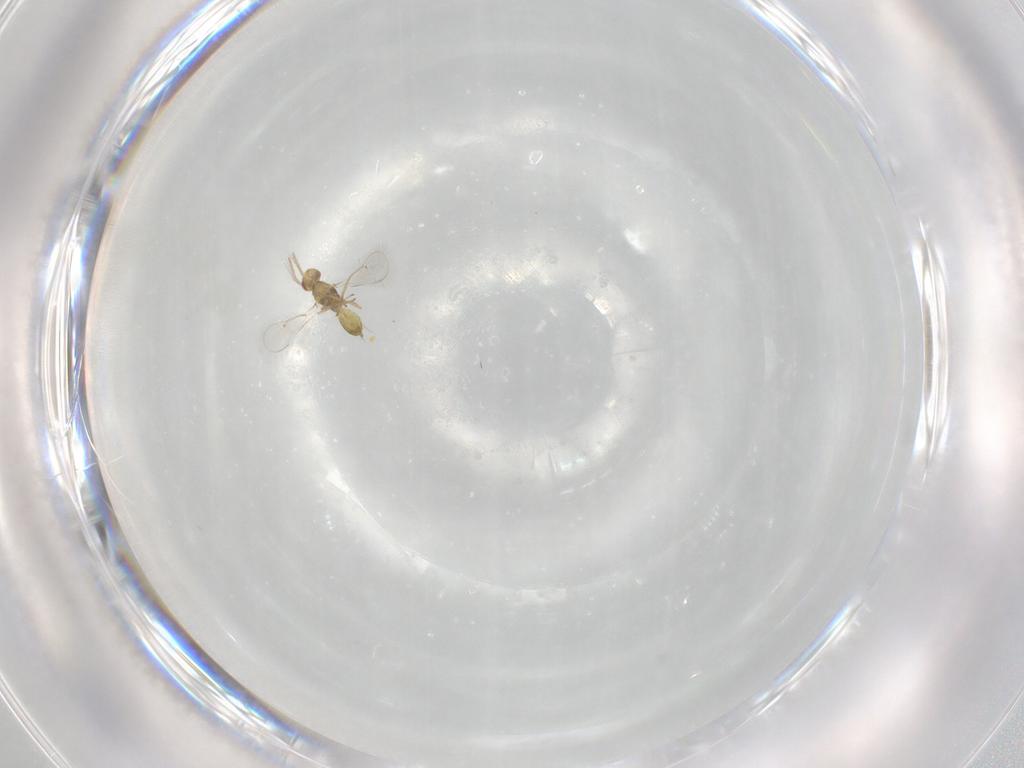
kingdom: Animalia
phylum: Arthropoda
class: Insecta
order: Hymenoptera
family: Eulophidae
